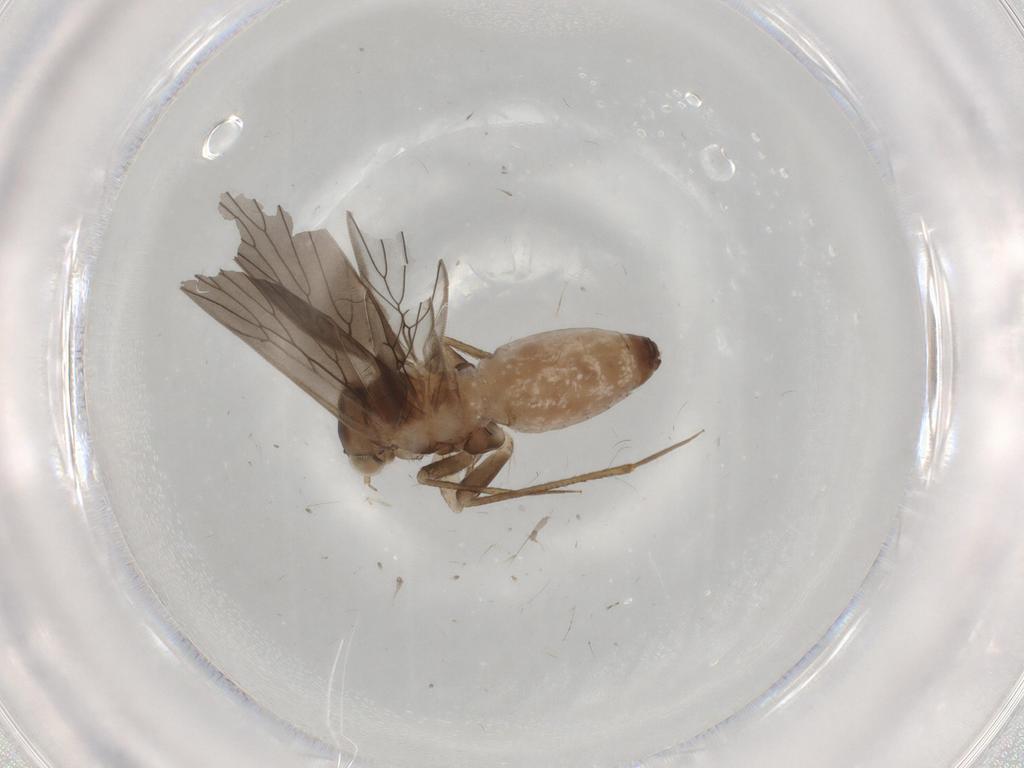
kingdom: Animalia
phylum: Arthropoda
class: Insecta
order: Psocodea
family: Lepidopsocidae
